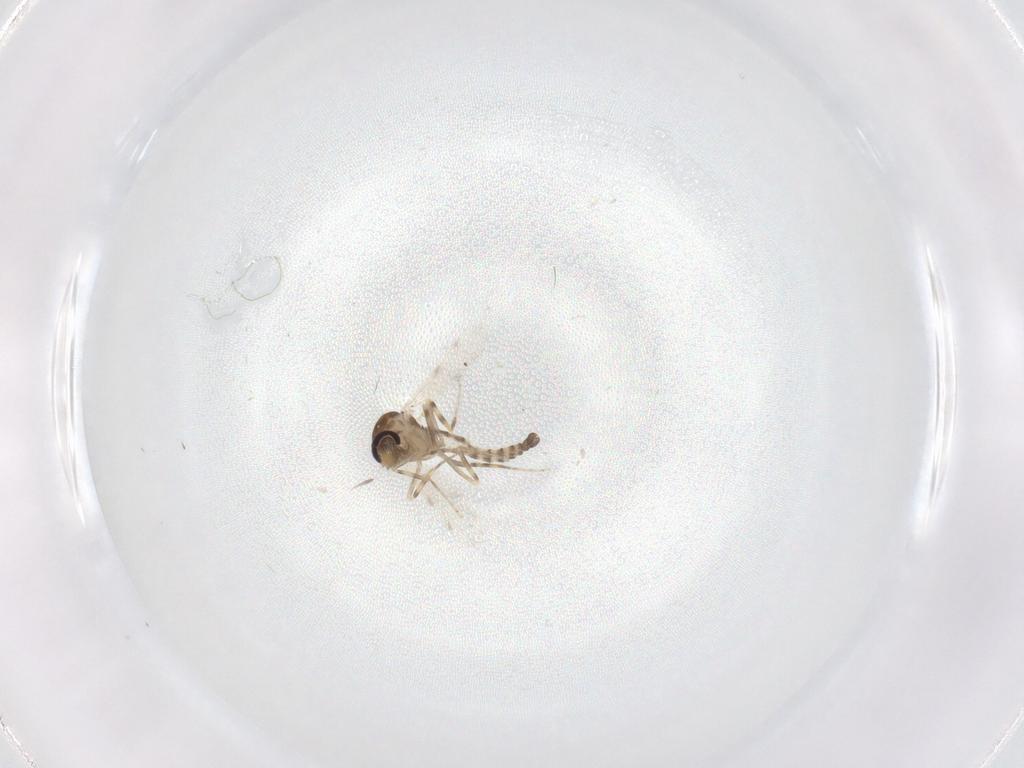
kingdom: Animalia
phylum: Arthropoda
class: Insecta
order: Diptera
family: Ceratopogonidae
